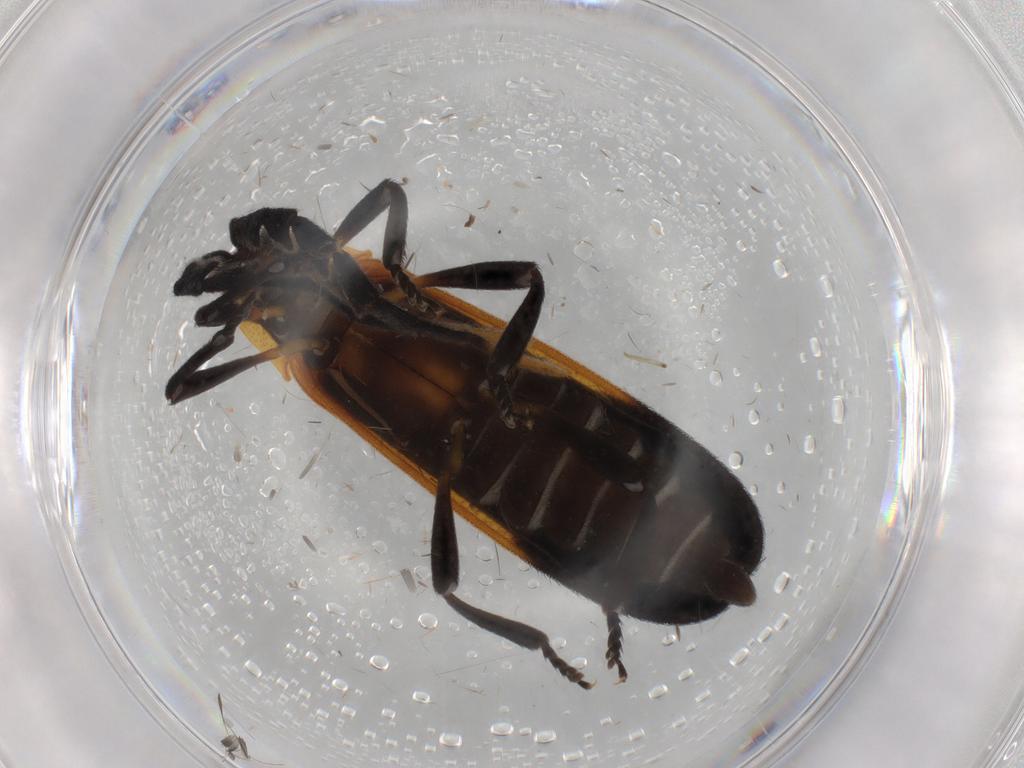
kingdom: Animalia
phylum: Arthropoda
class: Insecta
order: Coleoptera
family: Lycidae
